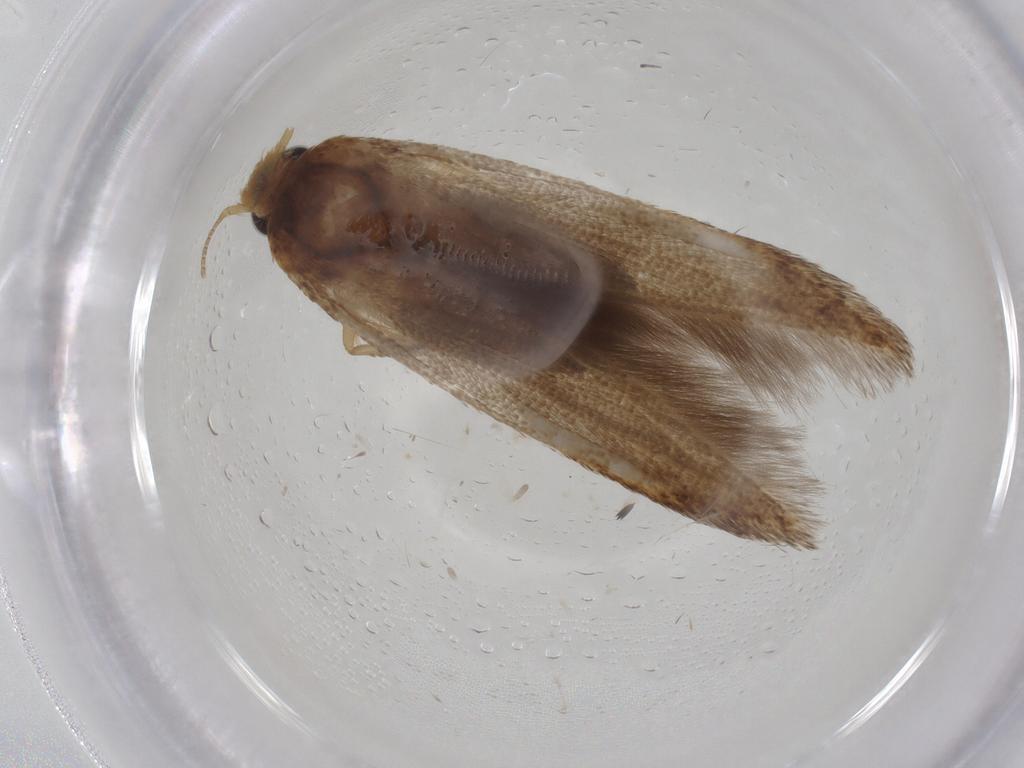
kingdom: Animalia
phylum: Arthropoda
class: Insecta
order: Lepidoptera
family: Blastobasidae
